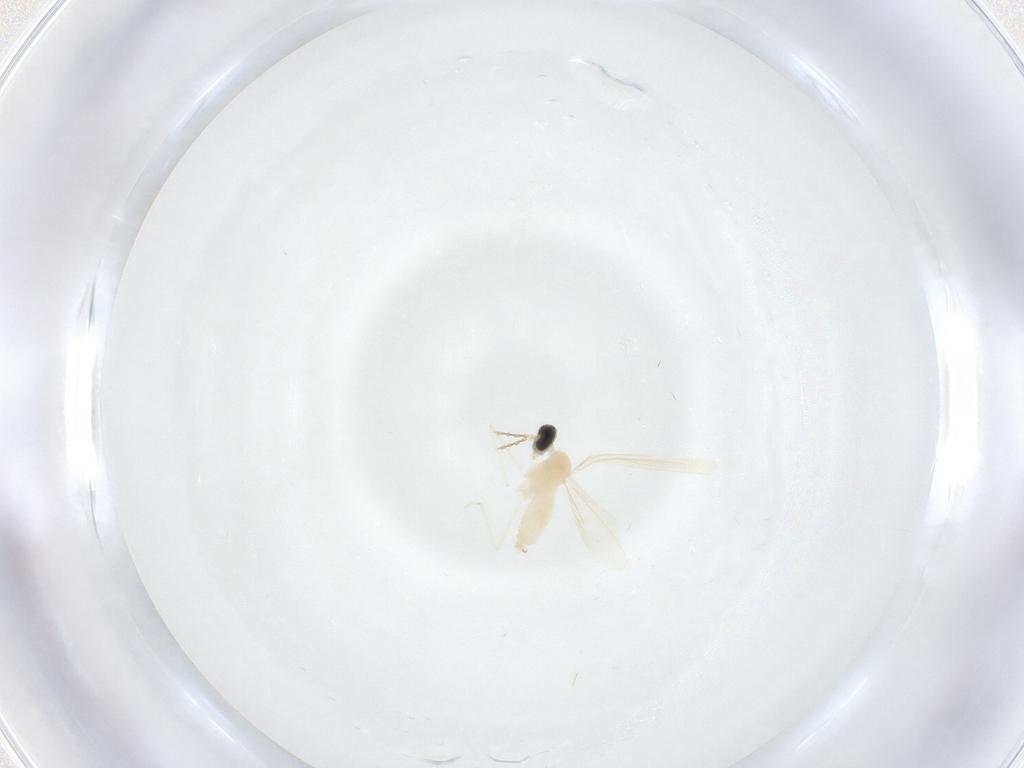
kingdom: Animalia
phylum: Arthropoda
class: Insecta
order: Diptera
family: Cecidomyiidae
